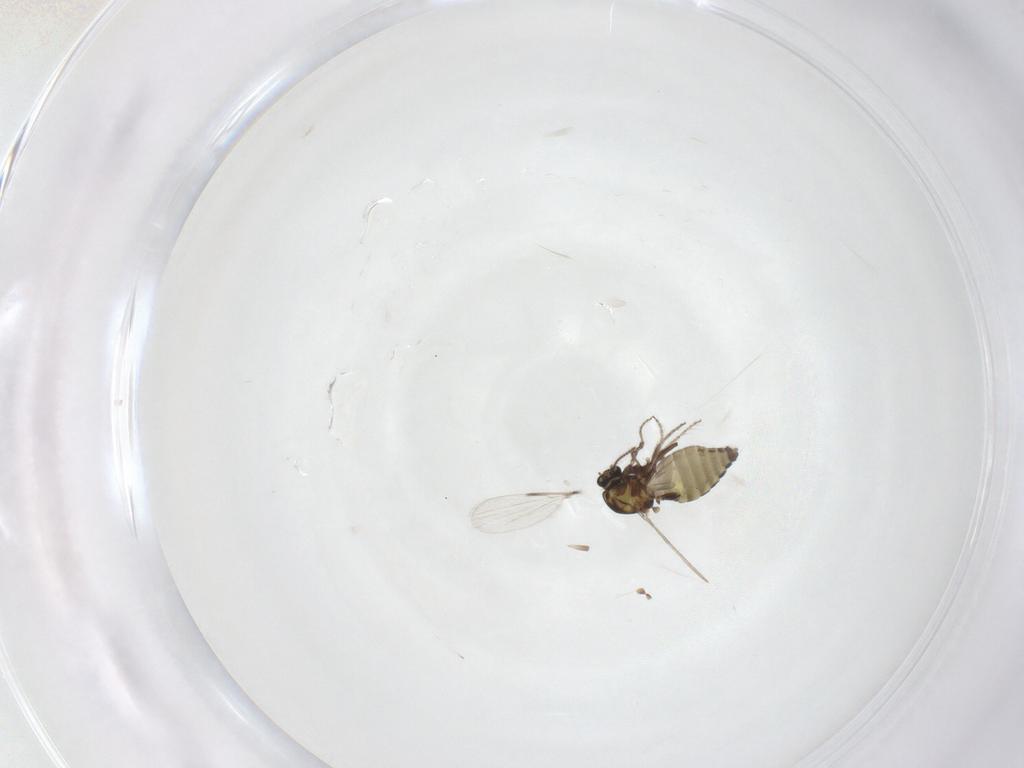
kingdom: Animalia
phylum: Arthropoda
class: Insecta
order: Diptera
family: Ceratopogonidae
